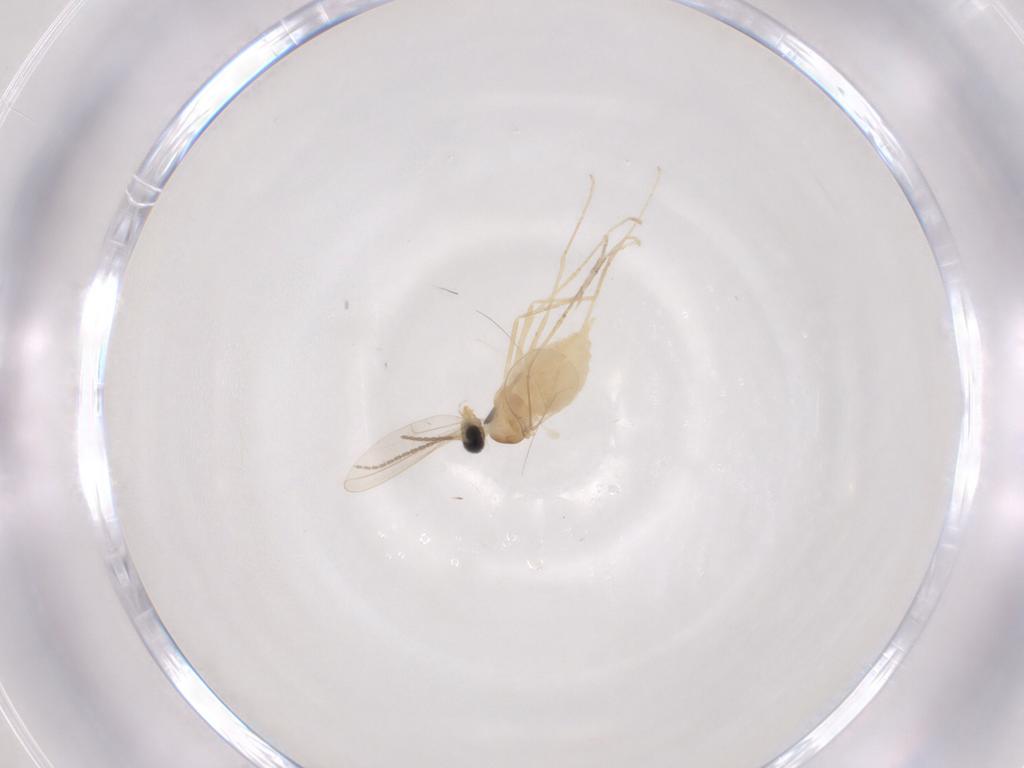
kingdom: Animalia
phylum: Arthropoda
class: Insecta
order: Diptera
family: Cecidomyiidae
